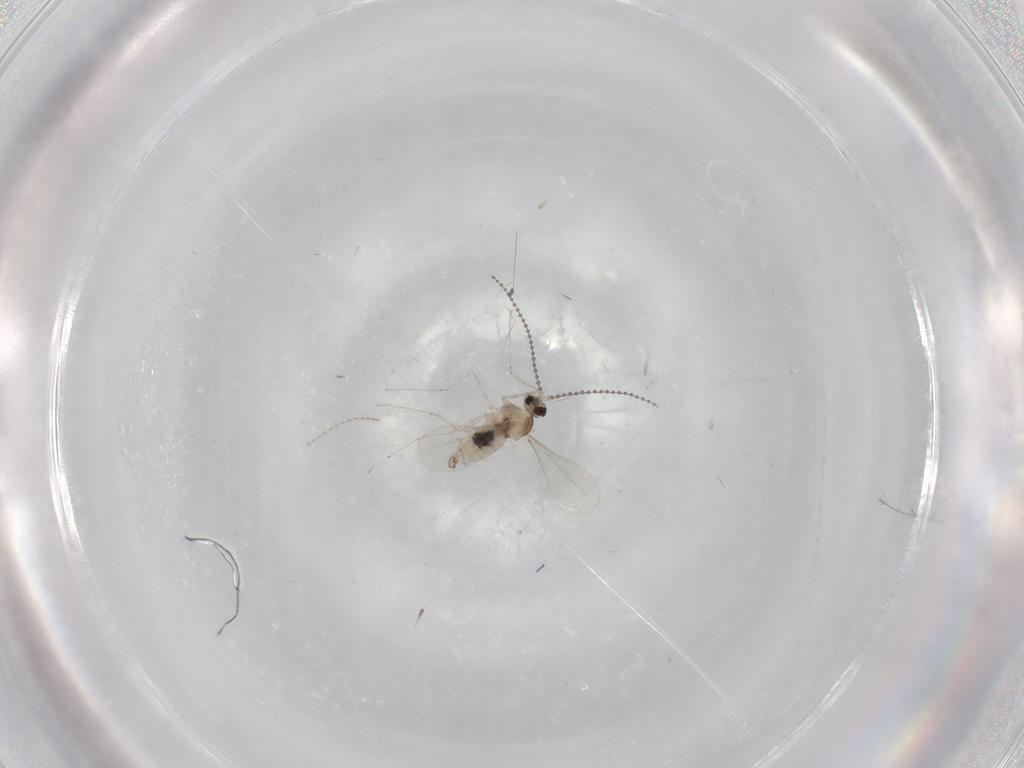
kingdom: Animalia
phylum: Arthropoda
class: Insecta
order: Diptera
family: Cecidomyiidae
